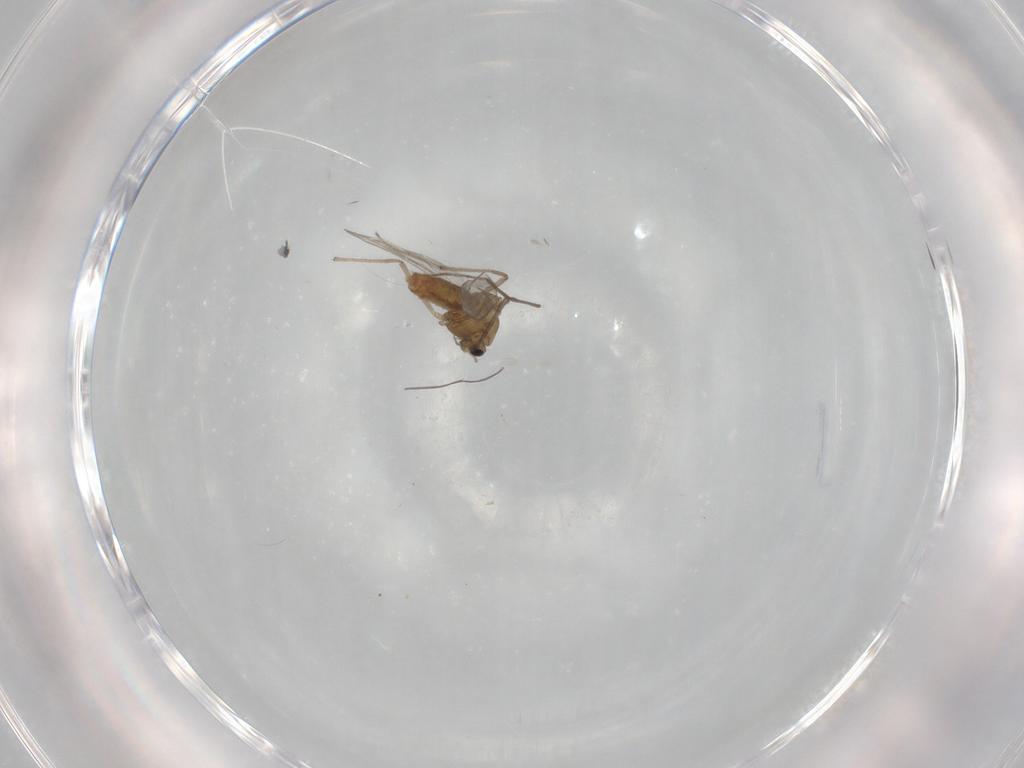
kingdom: Animalia
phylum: Arthropoda
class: Insecta
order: Diptera
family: Chironomidae
